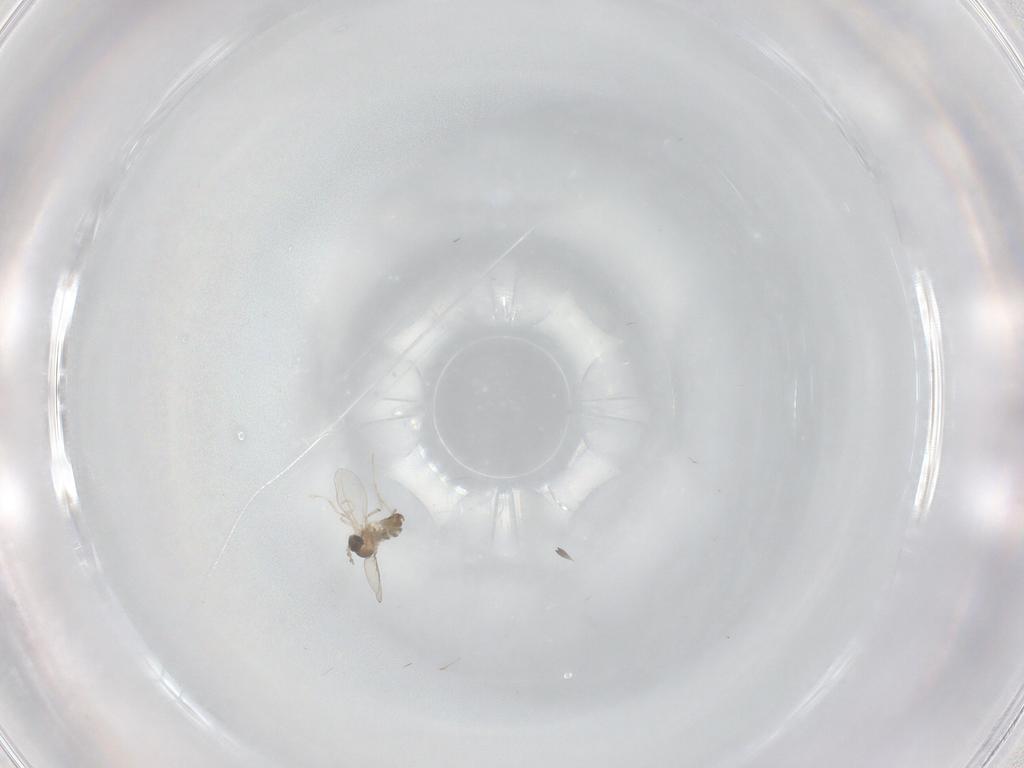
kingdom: Animalia
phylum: Arthropoda
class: Insecta
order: Diptera
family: Cecidomyiidae
